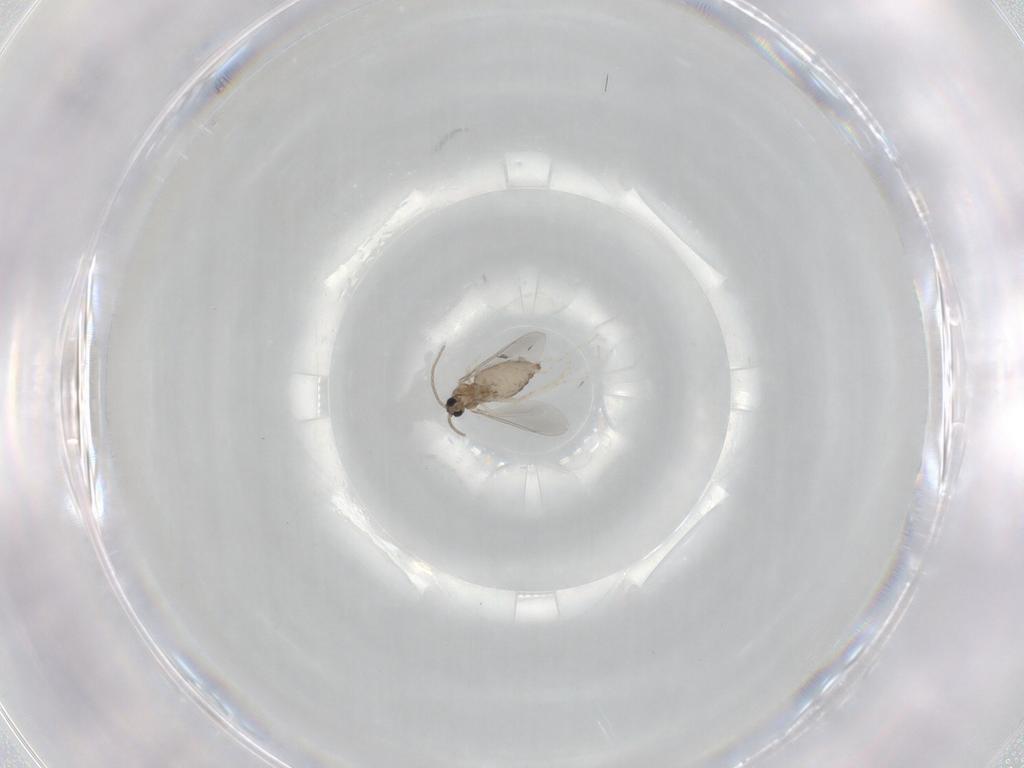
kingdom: Animalia
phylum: Arthropoda
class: Insecta
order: Diptera
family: Cecidomyiidae
